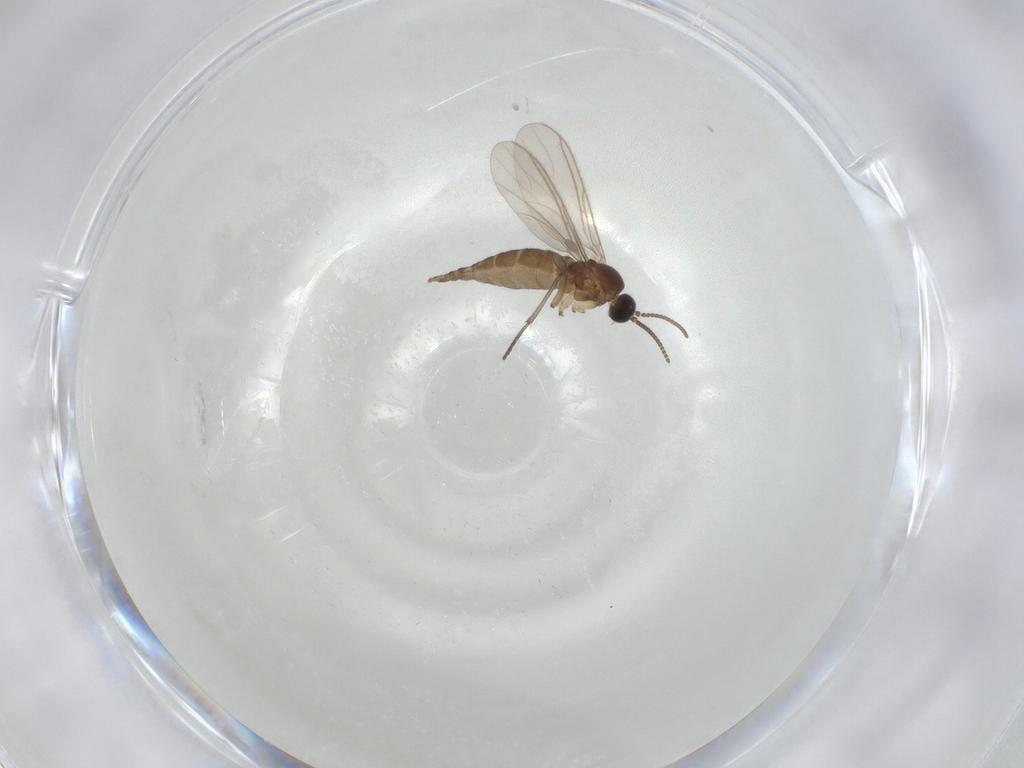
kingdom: Animalia
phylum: Arthropoda
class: Insecta
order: Diptera
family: Sciaridae
